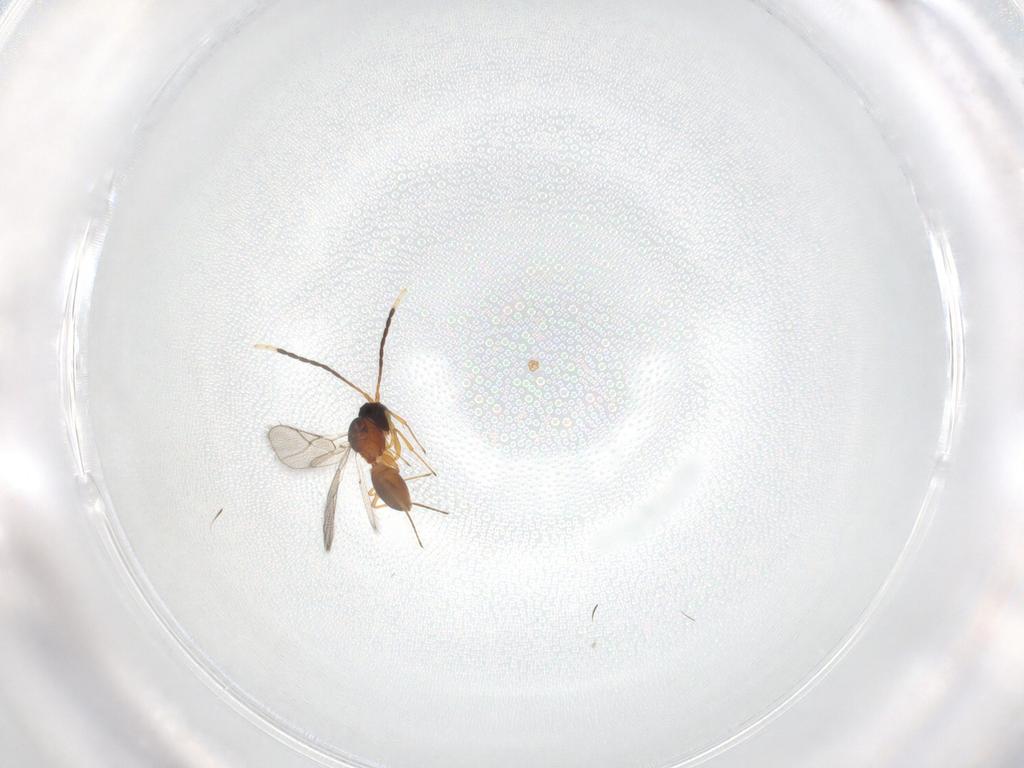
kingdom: Animalia
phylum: Arthropoda
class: Insecta
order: Hymenoptera
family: Figitidae
